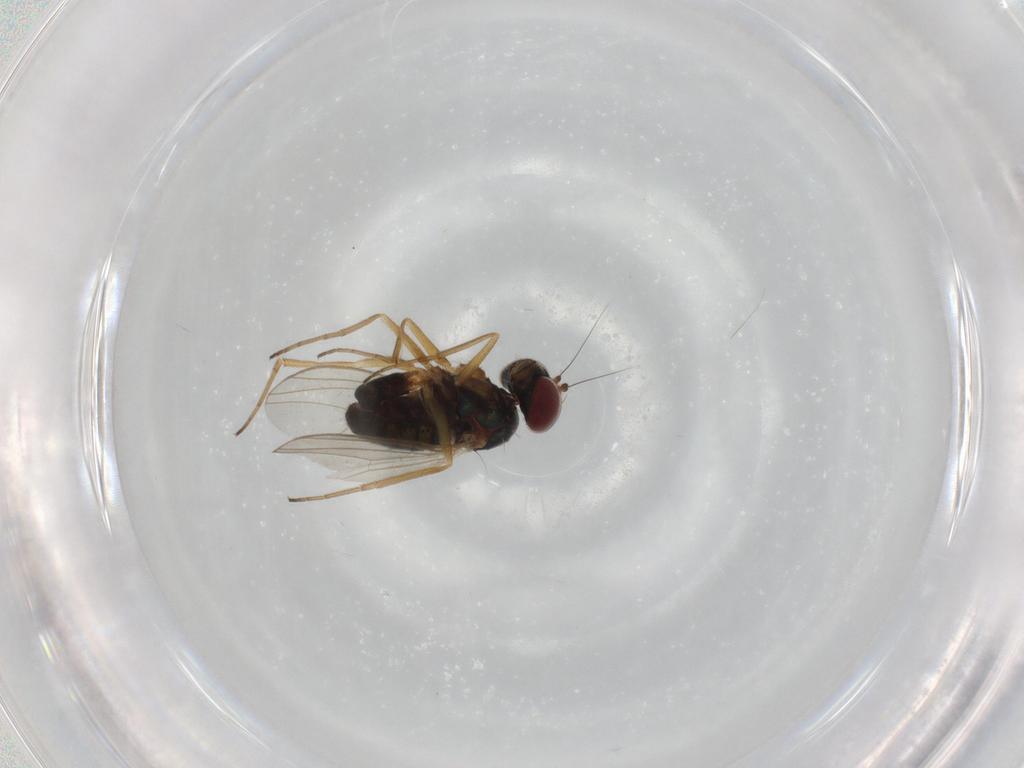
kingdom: Animalia
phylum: Arthropoda
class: Insecta
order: Diptera
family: Dolichopodidae
